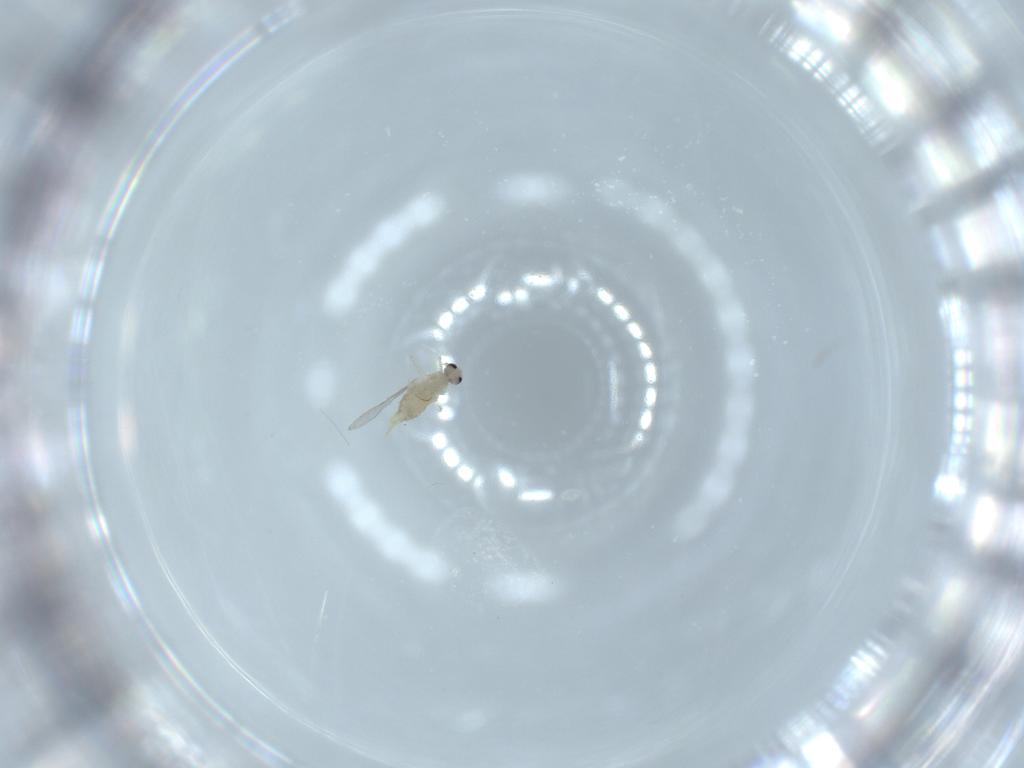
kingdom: Animalia
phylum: Arthropoda
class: Insecta
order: Diptera
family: Cecidomyiidae
